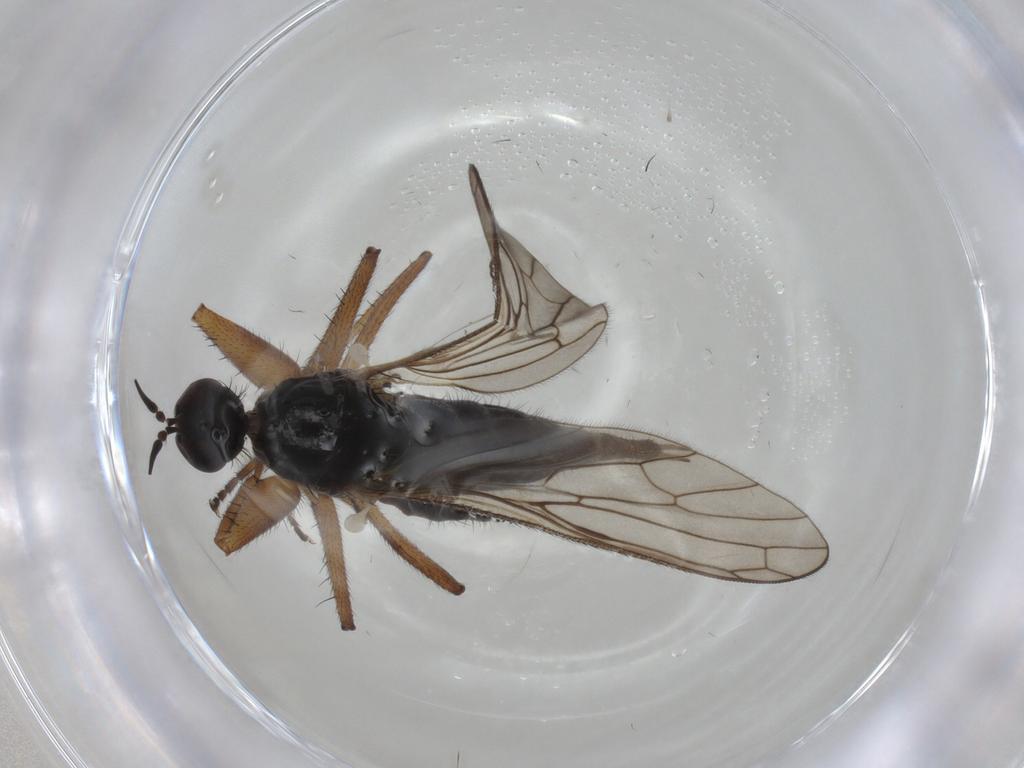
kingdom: Animalia
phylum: Arthropoda
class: Insecta
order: Diptera
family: Empididae
